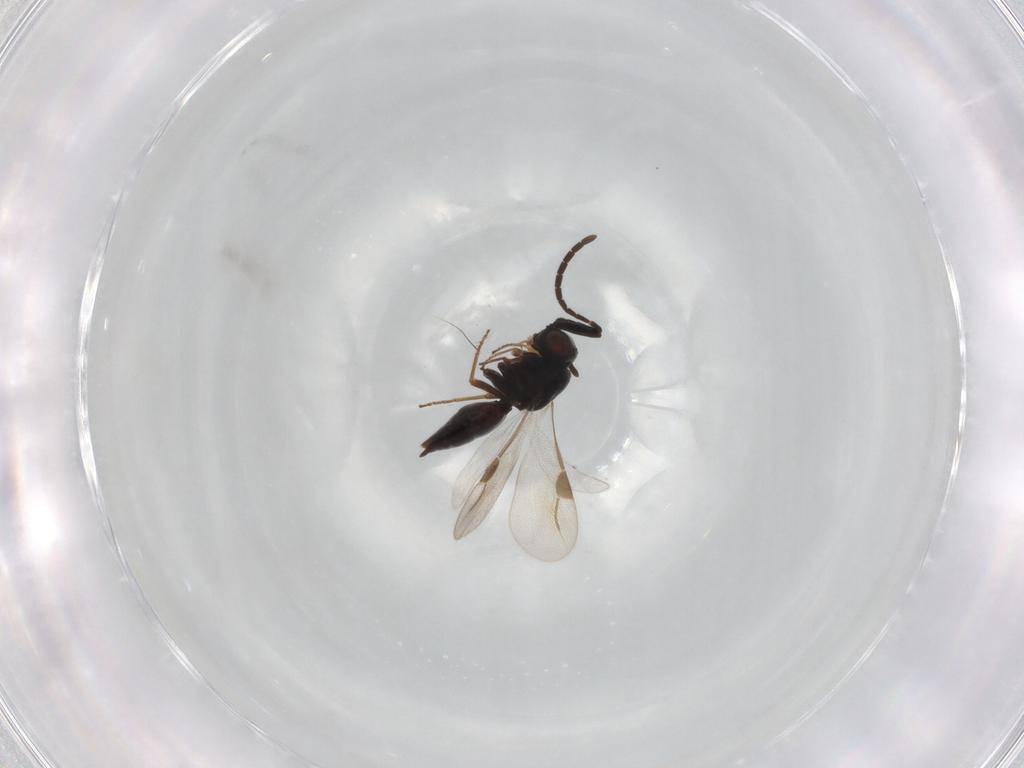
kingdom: Animalia
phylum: Arthropoda
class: Insecta
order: Hymenoptera
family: Braconidae
